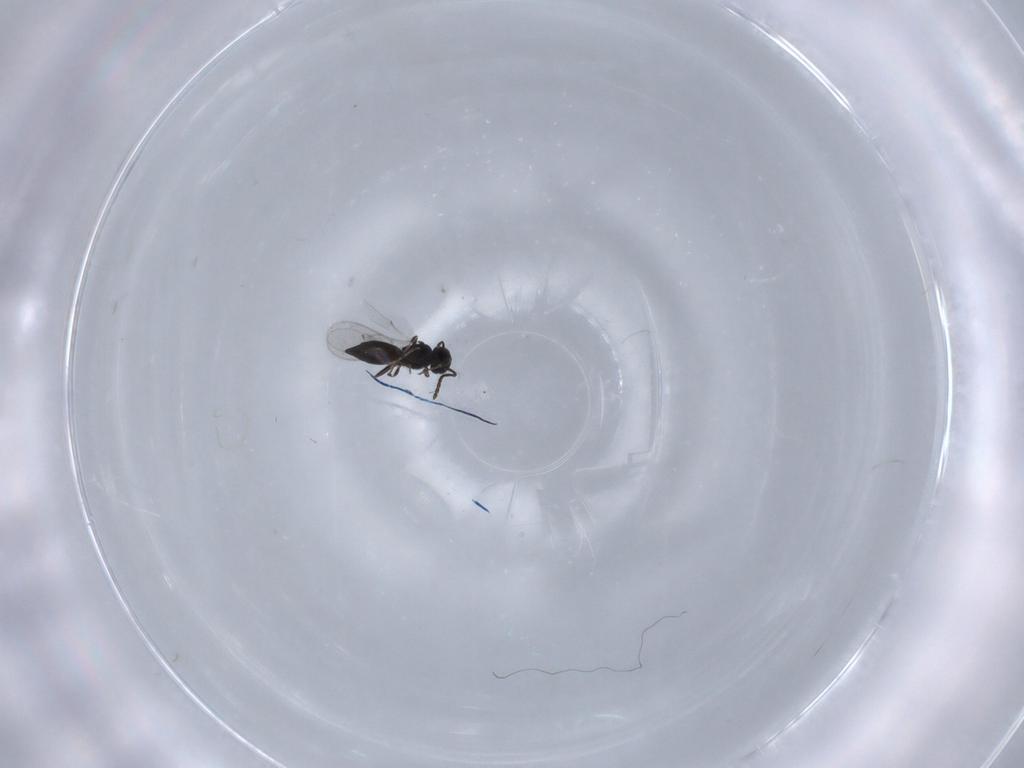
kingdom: Animalia
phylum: Arthropoda
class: Insecta
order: Hymenoptera
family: Scelionidae
